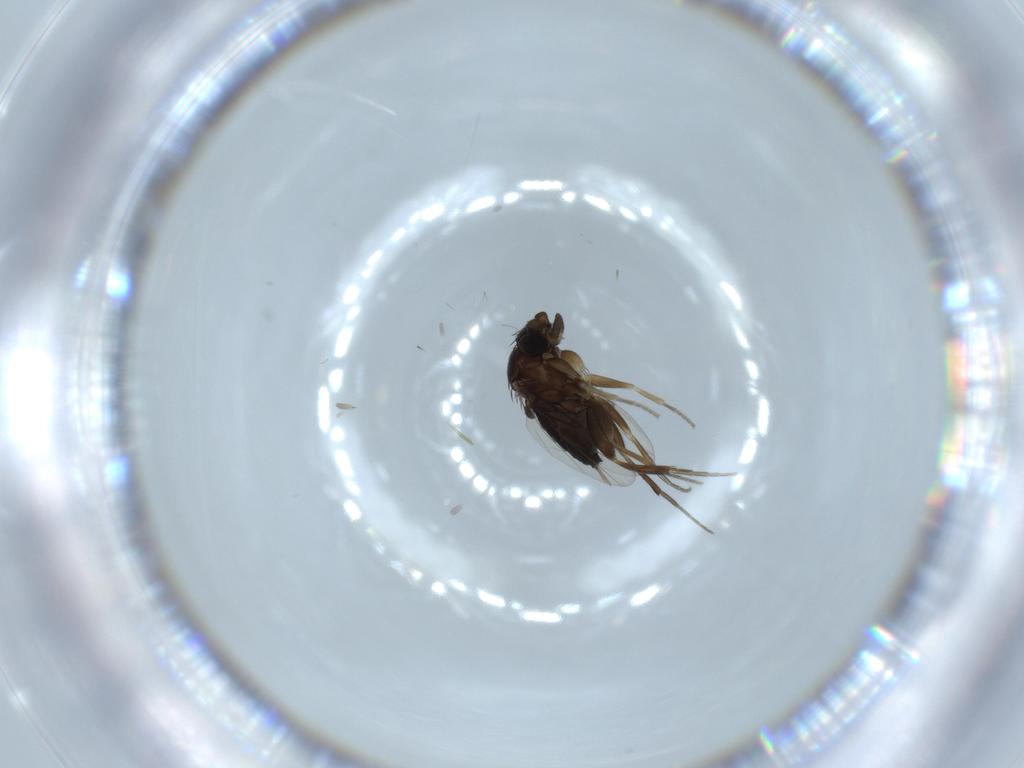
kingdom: Animalia
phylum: Arthropoda
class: Insecta
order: Diptera
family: Phoridae
